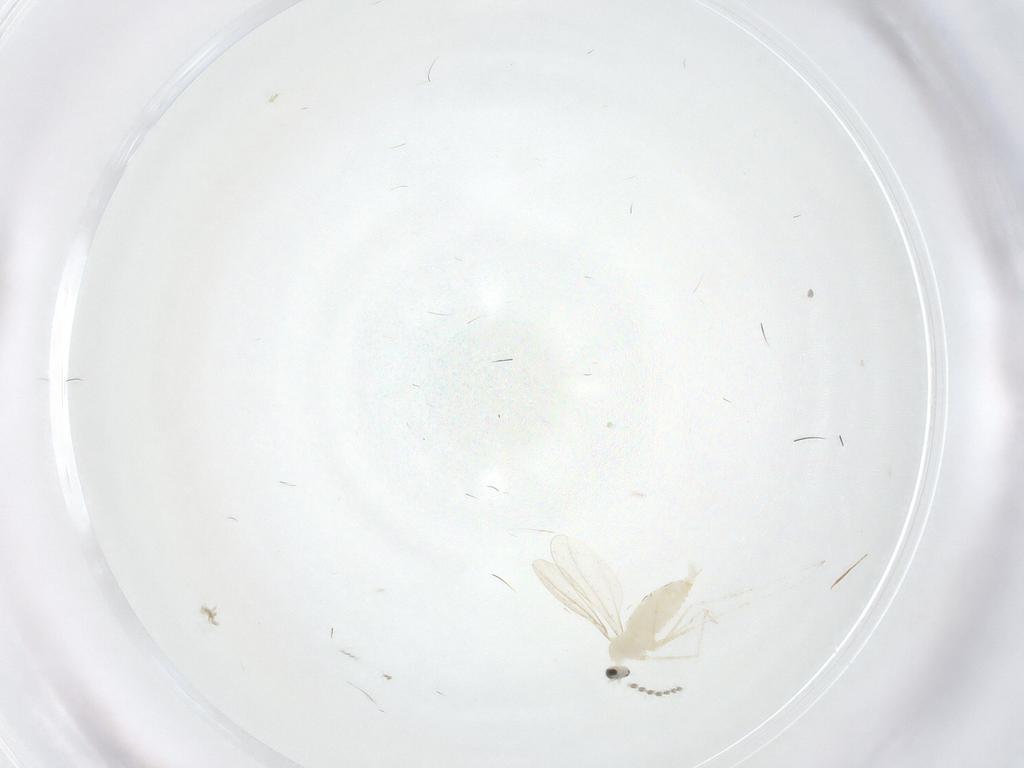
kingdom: Animalia
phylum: Arthropoda
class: Insecta
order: Diptera
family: Cecidomyiidae
